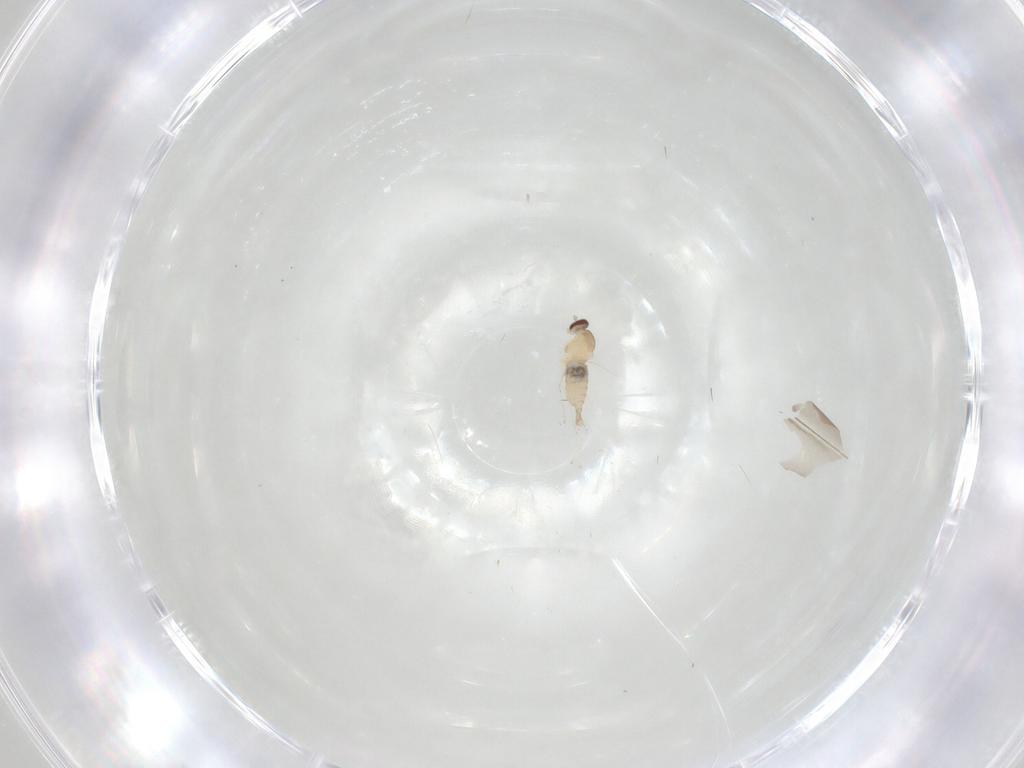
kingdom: Animalia
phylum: Arthropoda
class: Insecta
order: Diptera
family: Cecidomyiidae
